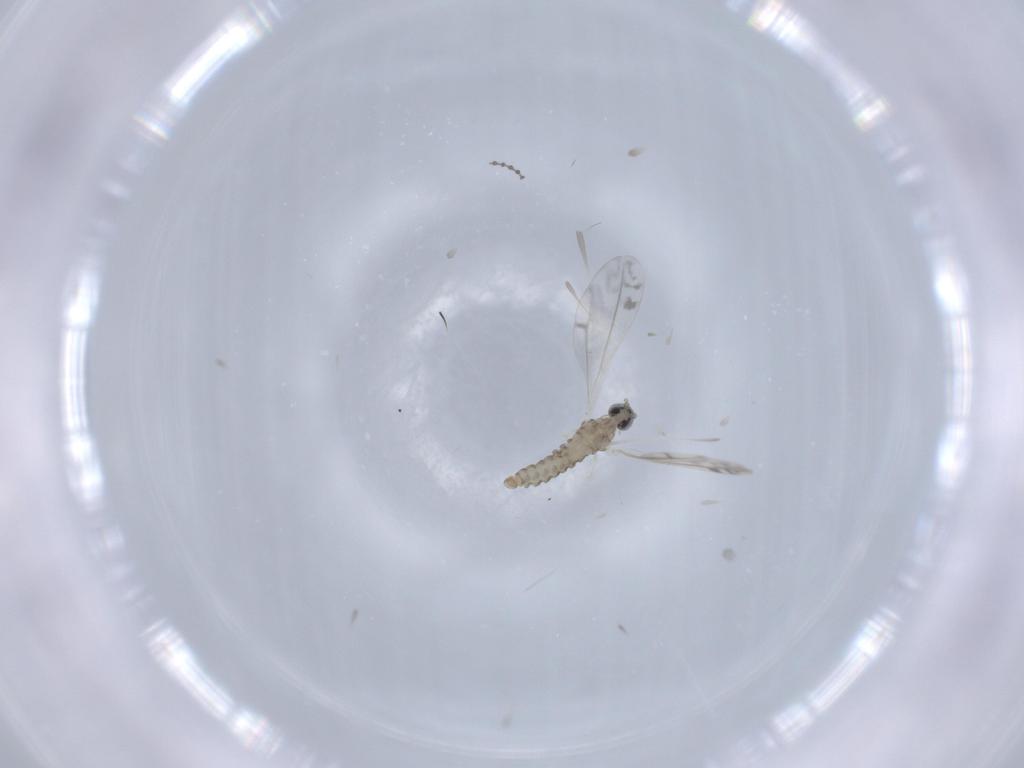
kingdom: Animalia
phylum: Arthropoda
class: Insecta
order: Diptera
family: Cecidomyiidae
